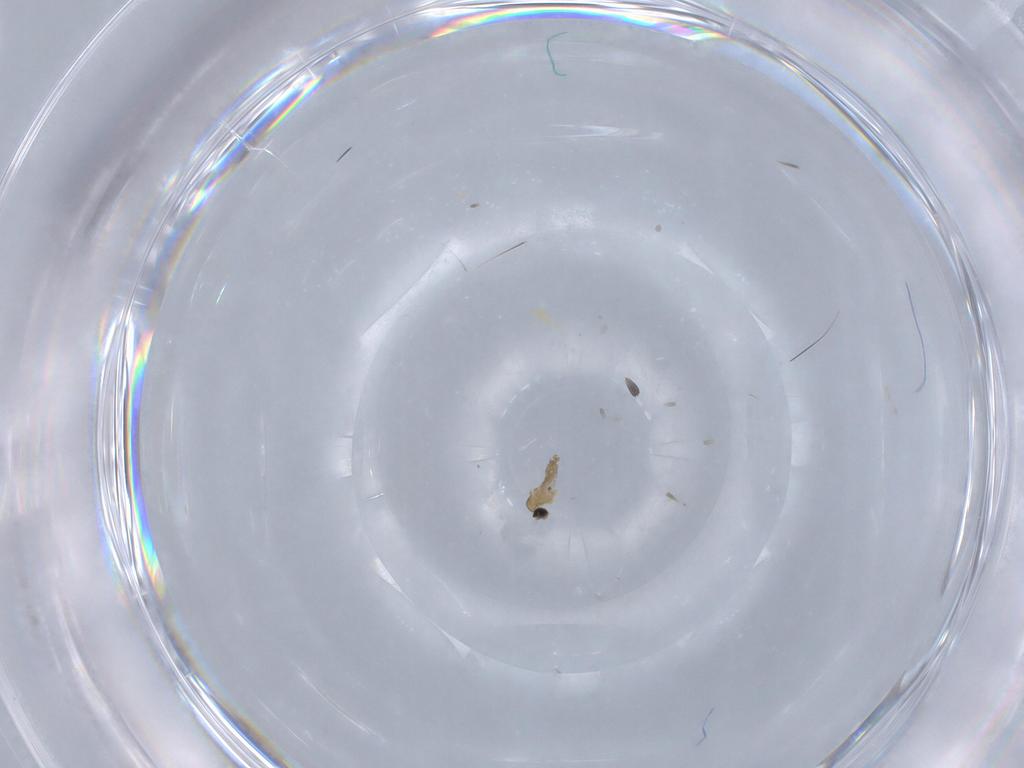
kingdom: Animalia
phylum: Arthropoda
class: Insecta
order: Diptera
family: Cecidomyiidae
